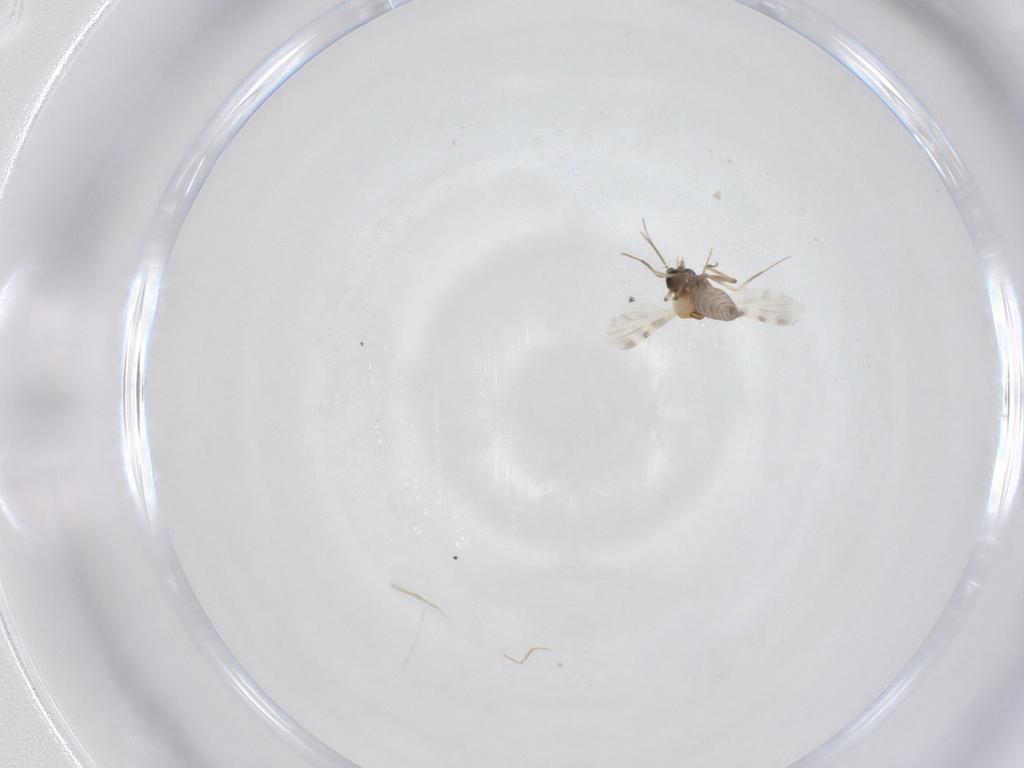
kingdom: Animalia
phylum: Arthropoda
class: Insecta
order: Diptera
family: Ceratopogonidae
